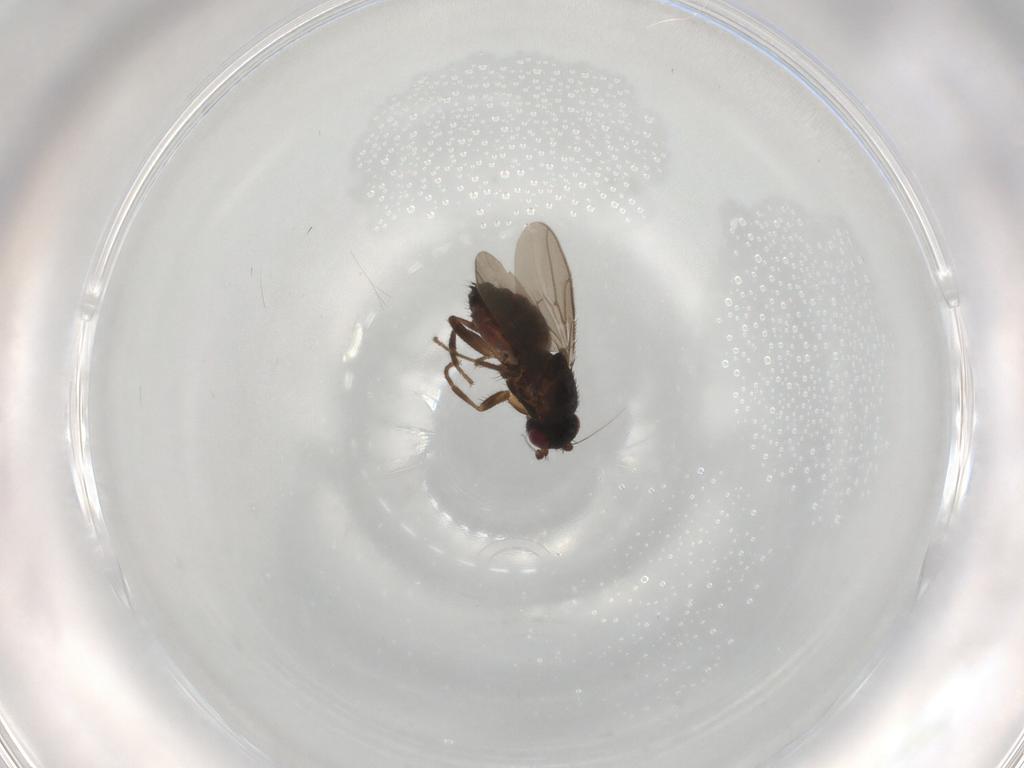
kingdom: Animalia
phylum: Arthropoda
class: Insecta
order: Diptera
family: Sphaeroceridae
